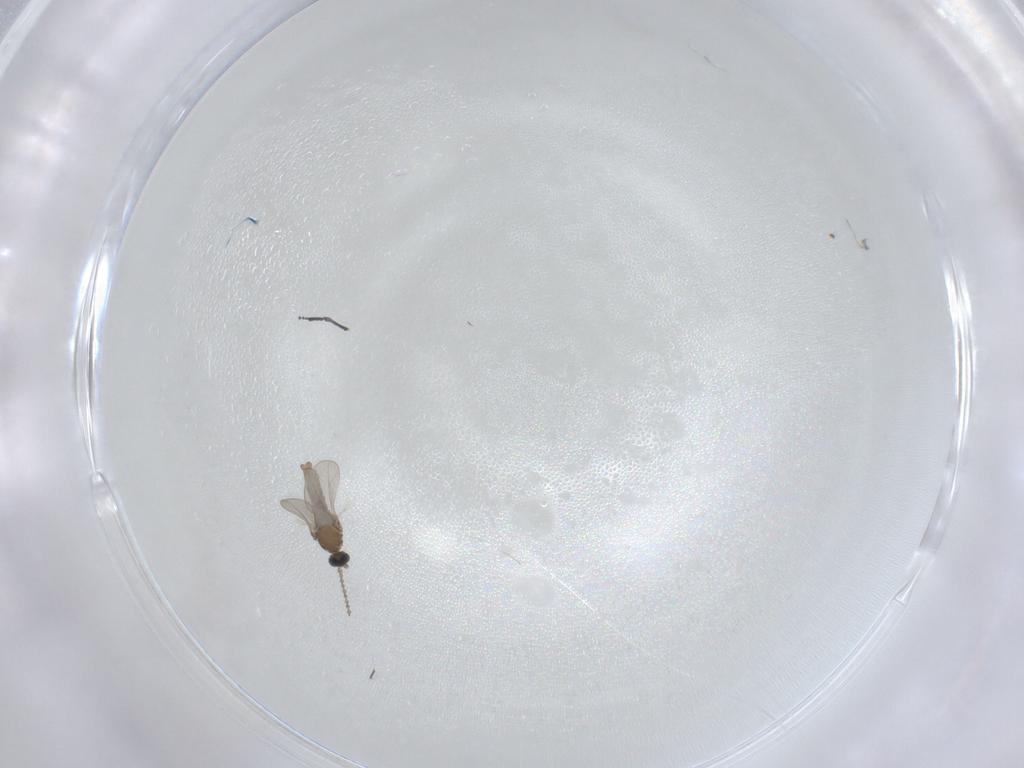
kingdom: Animalia
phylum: Arthropoda
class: Insecta
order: Diptera
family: Cecidomyiidae
